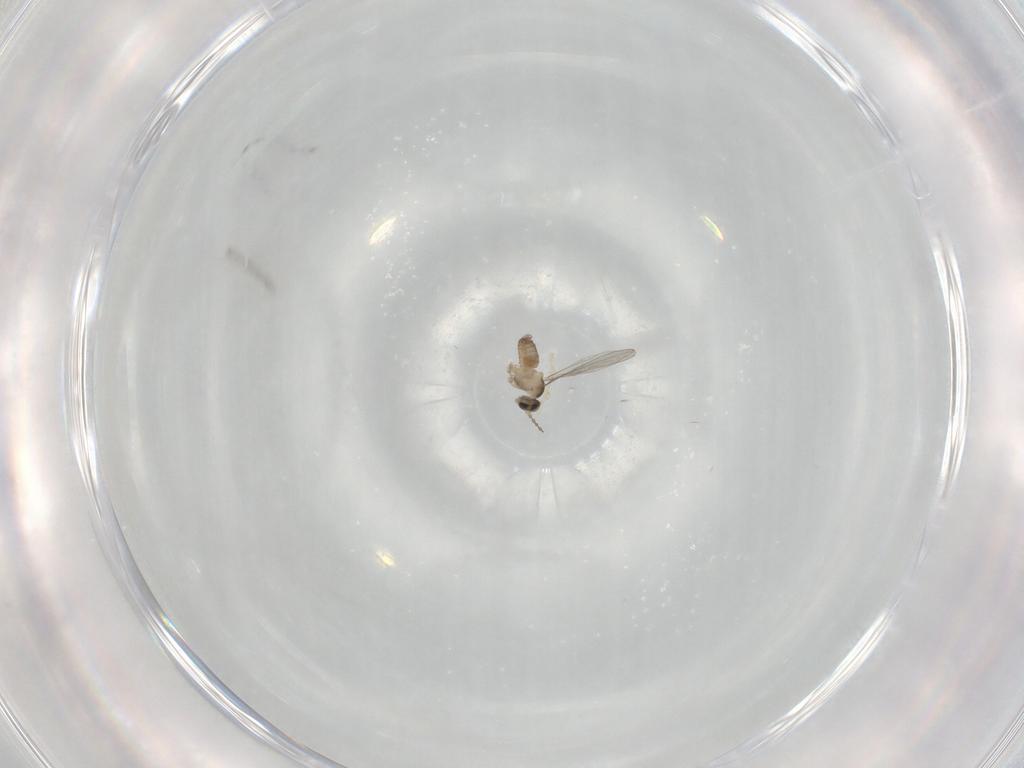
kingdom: Animalia
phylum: Arthropoda
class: Insecta
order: Diptera
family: Cecidomyiidae
